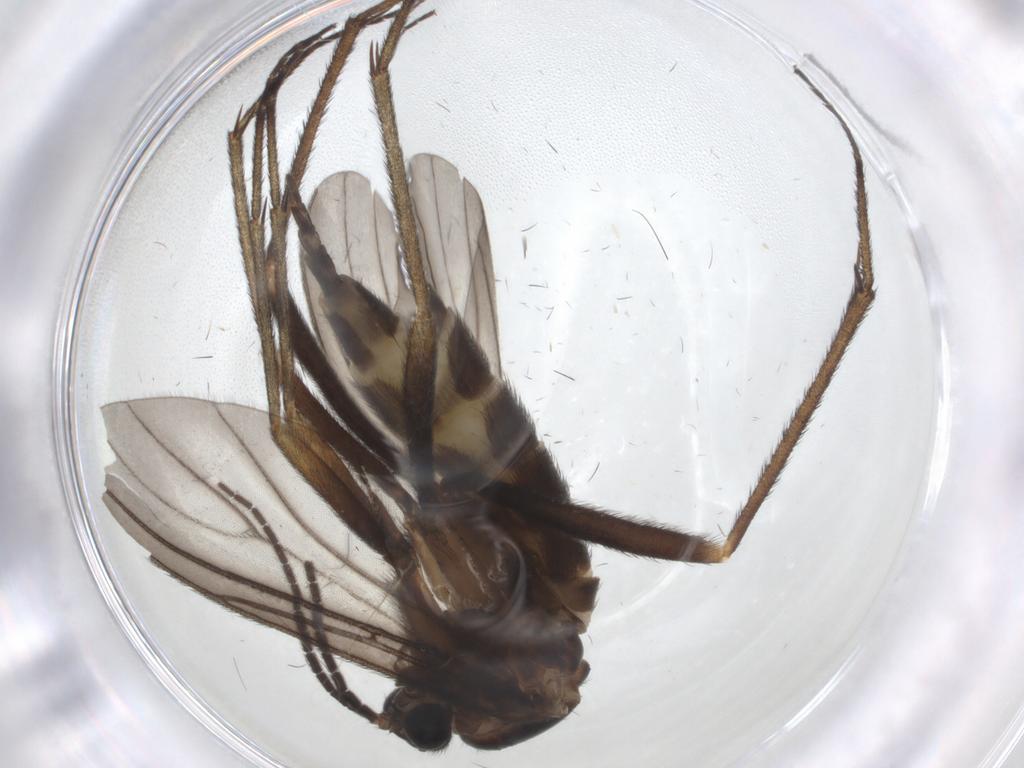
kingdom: Animalia
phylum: Arthropoda
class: Insecta
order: Diptera
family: Sciaridae
